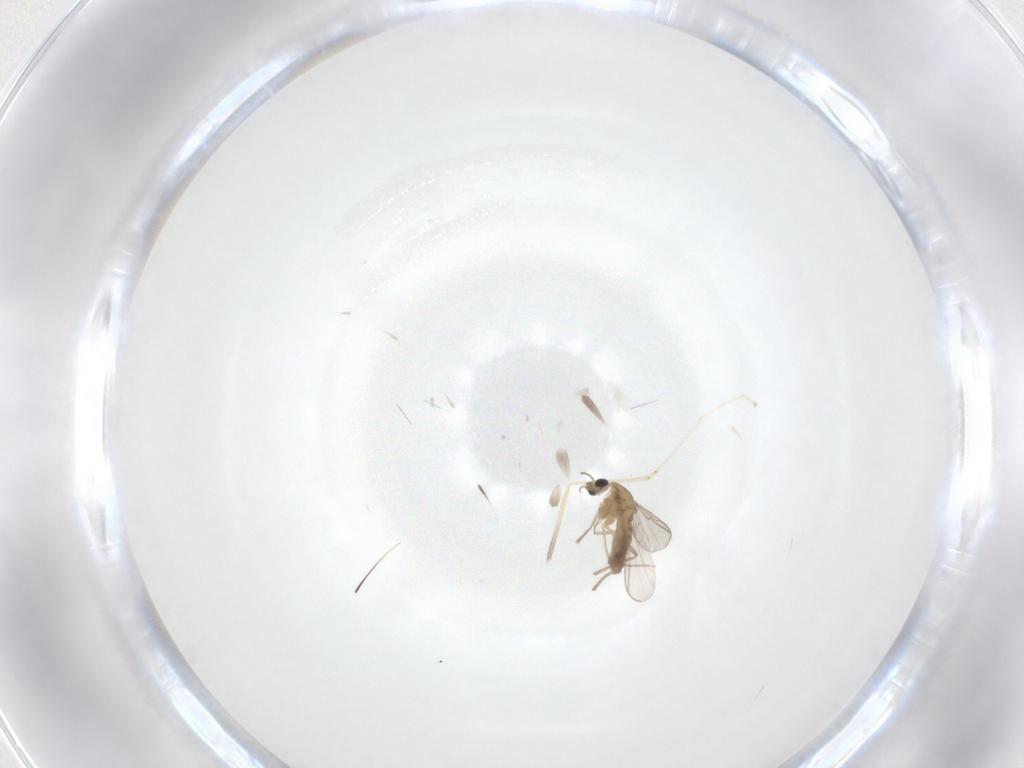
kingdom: Animalia
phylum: Arthropoda
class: Insecta
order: Diptera
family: Chironomidae
